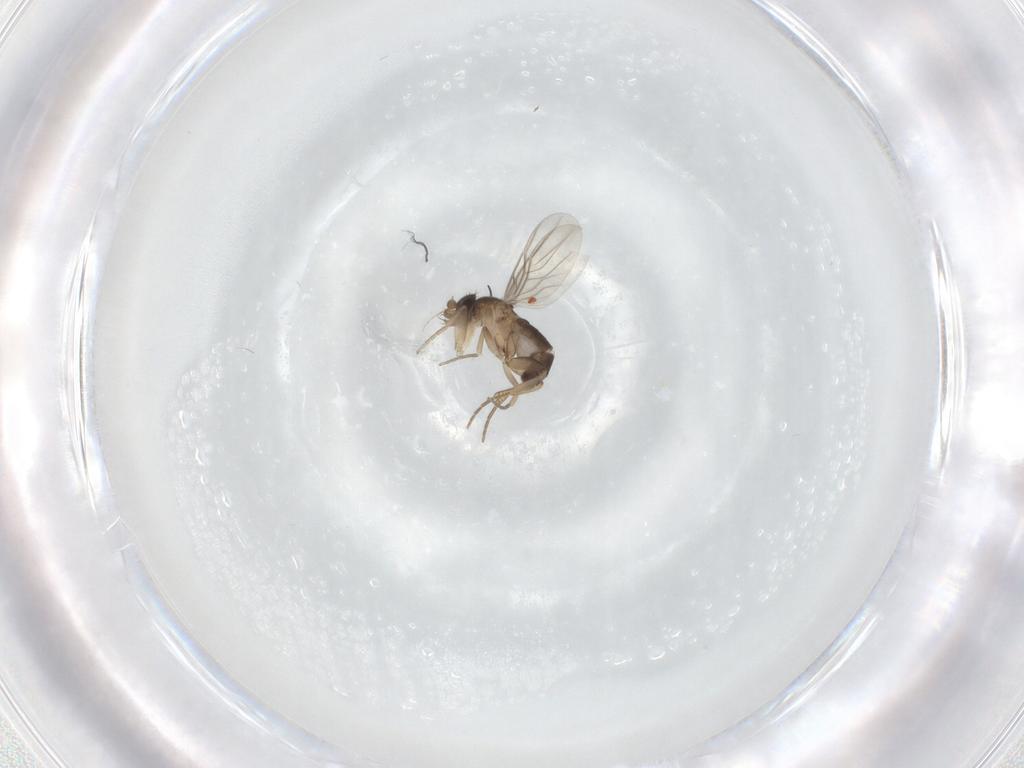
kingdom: Animalia
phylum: Arthropoda
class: Insecta
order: Diptera
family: Phoridae
